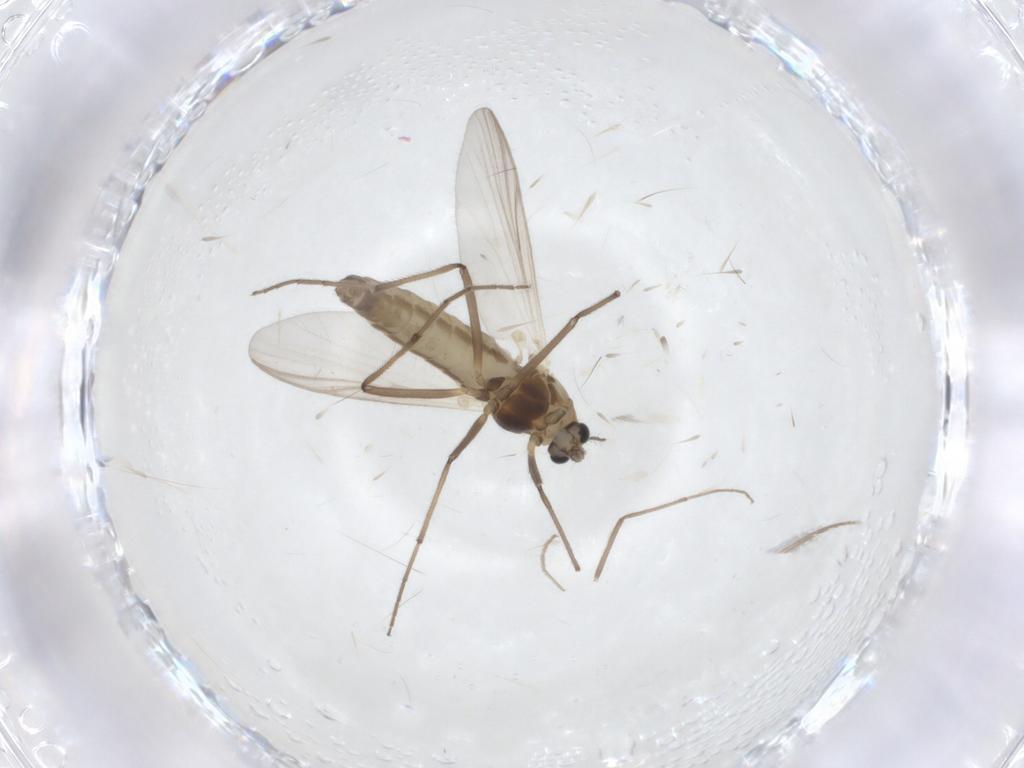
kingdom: Animalia
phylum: Arthropoda
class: Insecta
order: Diptera
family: Chironomidae
